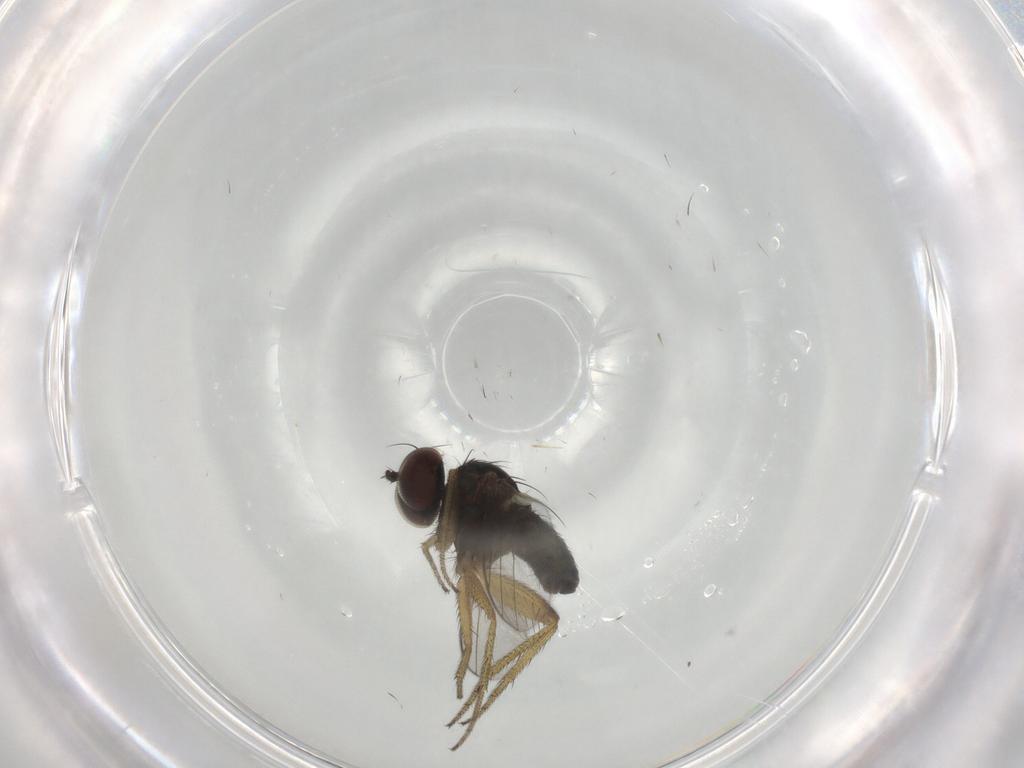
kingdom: Animalia
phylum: Arthropoda
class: Insecta
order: Diptera
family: Dolichopodidae
